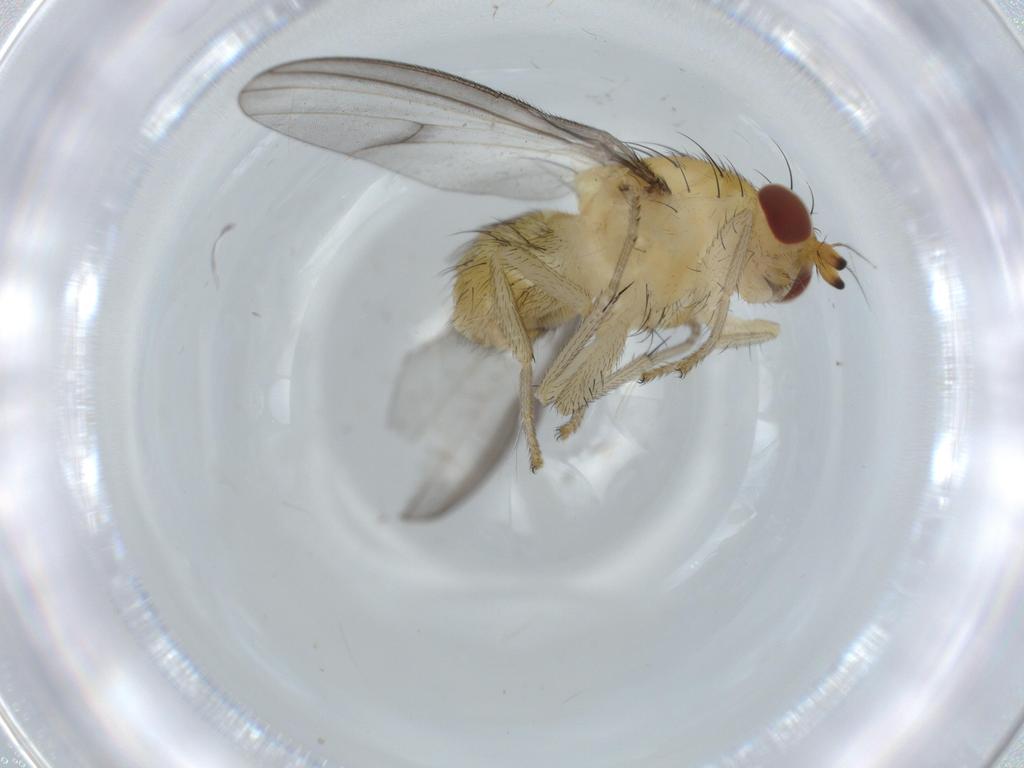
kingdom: Animalia
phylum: Arthropoda
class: Insecta
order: Diptera
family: Lauxaniidae
